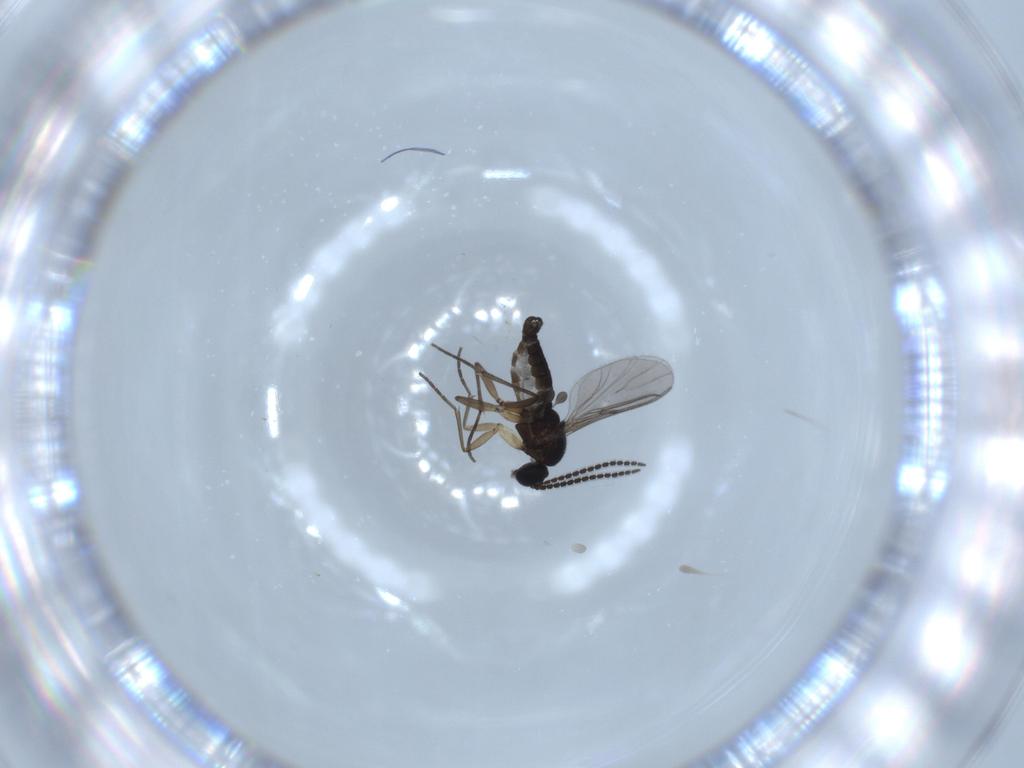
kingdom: Animalia
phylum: Arthropoda
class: Insecta
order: Diptera
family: Sciaridae
